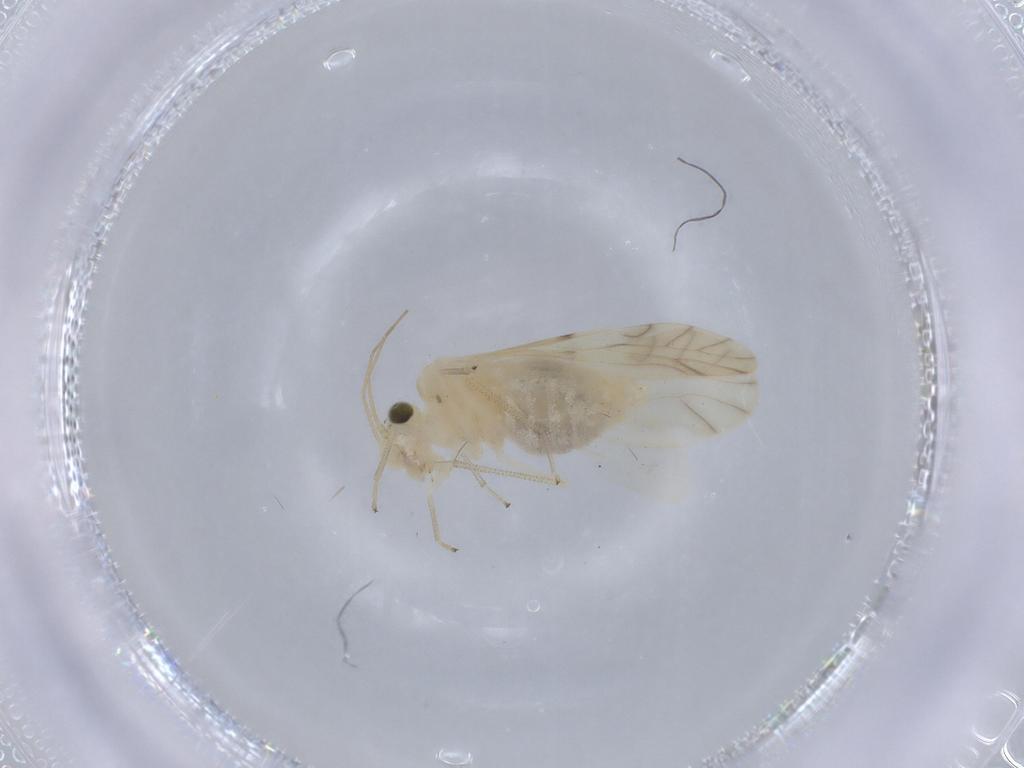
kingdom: Animalia
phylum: Arthropoda
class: Insecta
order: Psocodea
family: Caeciliusidae
